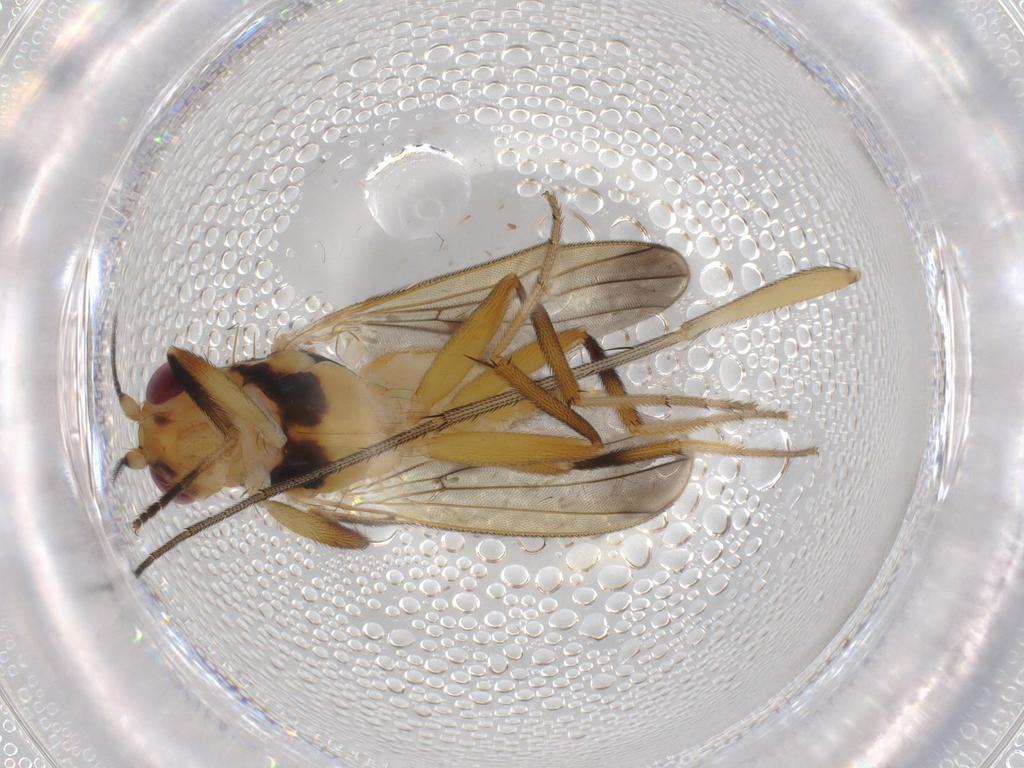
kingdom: Animalia
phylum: Arthropoda
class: Insecta
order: Diptera
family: Clusiidae
